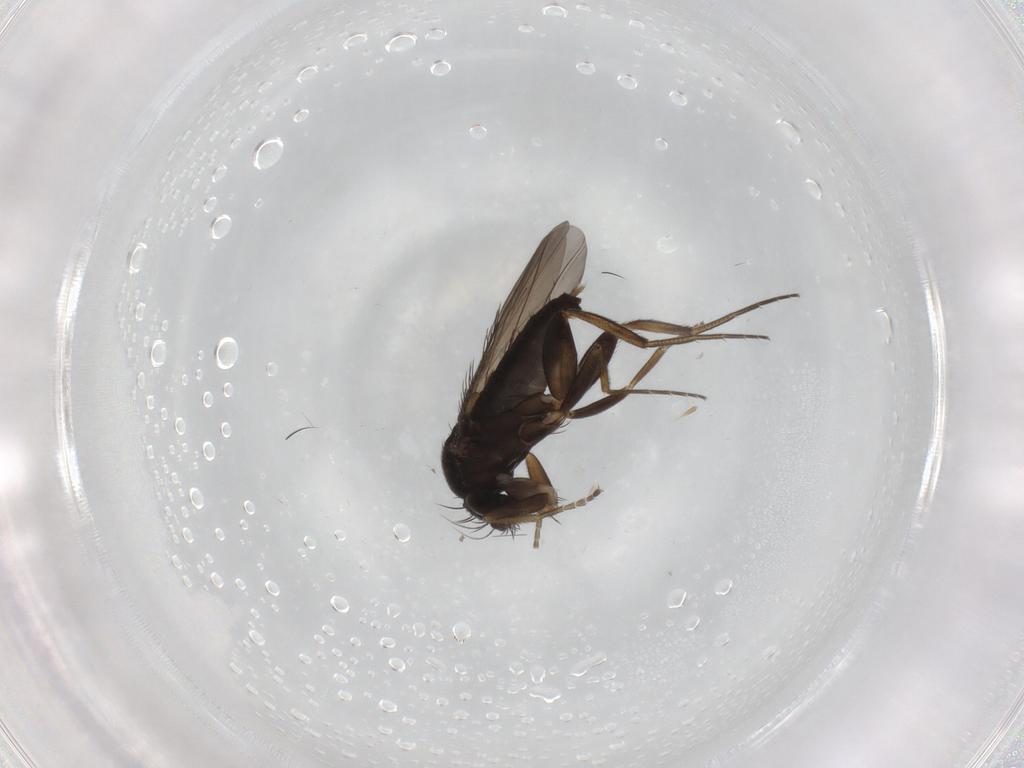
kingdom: Animalia
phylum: Arthropoda
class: Insecta
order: Diptera
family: Phoridae
